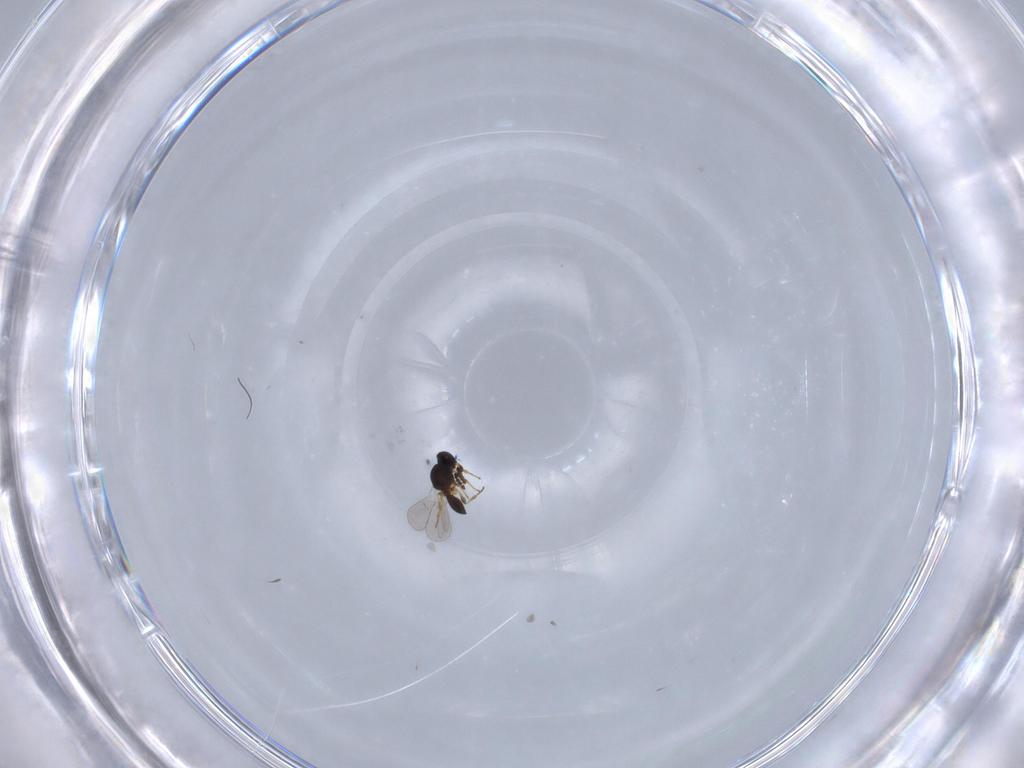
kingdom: Animalia
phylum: Arthropoda
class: Insecta
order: Hymenoptera
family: Platygastridae
